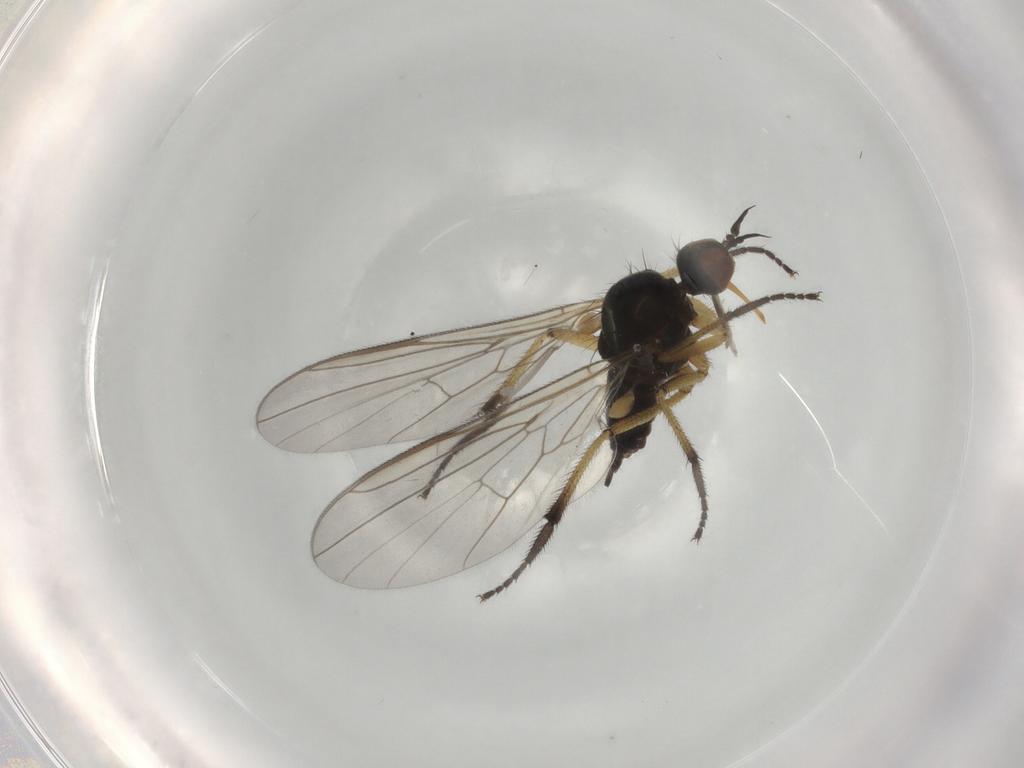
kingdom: Animalia
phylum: Arthropoda
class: Insecta
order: Diptera
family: Empididae
